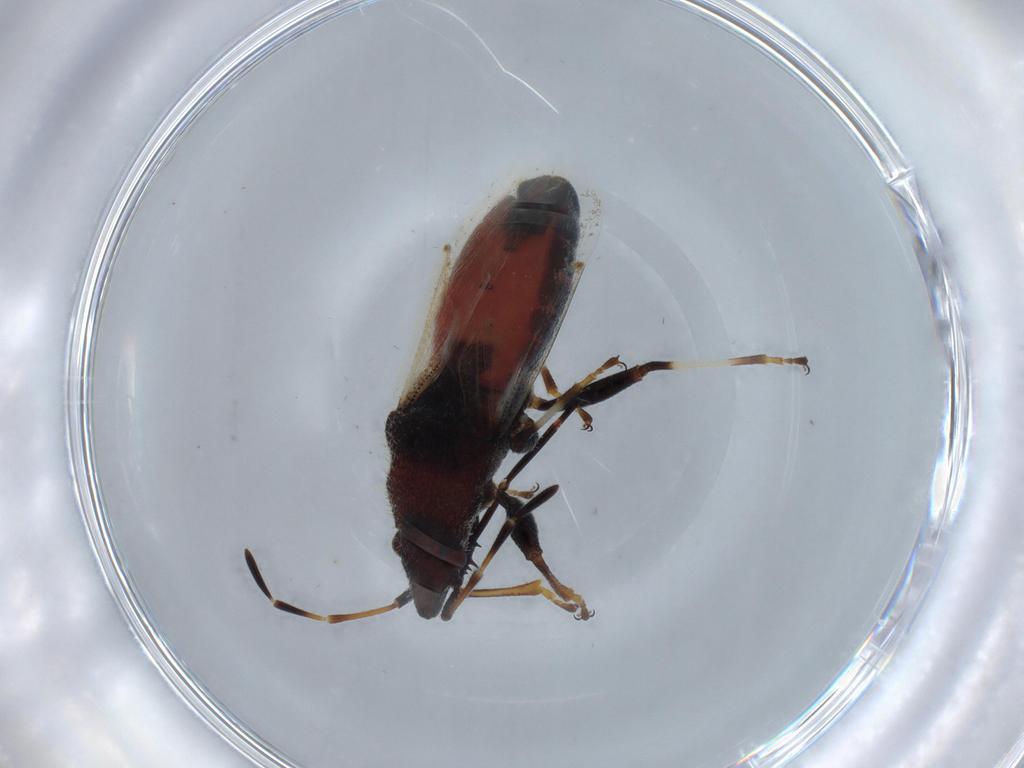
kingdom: Animalia
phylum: Arthropoda
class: Insecta
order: Hemiptera
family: Oxycarenidae
